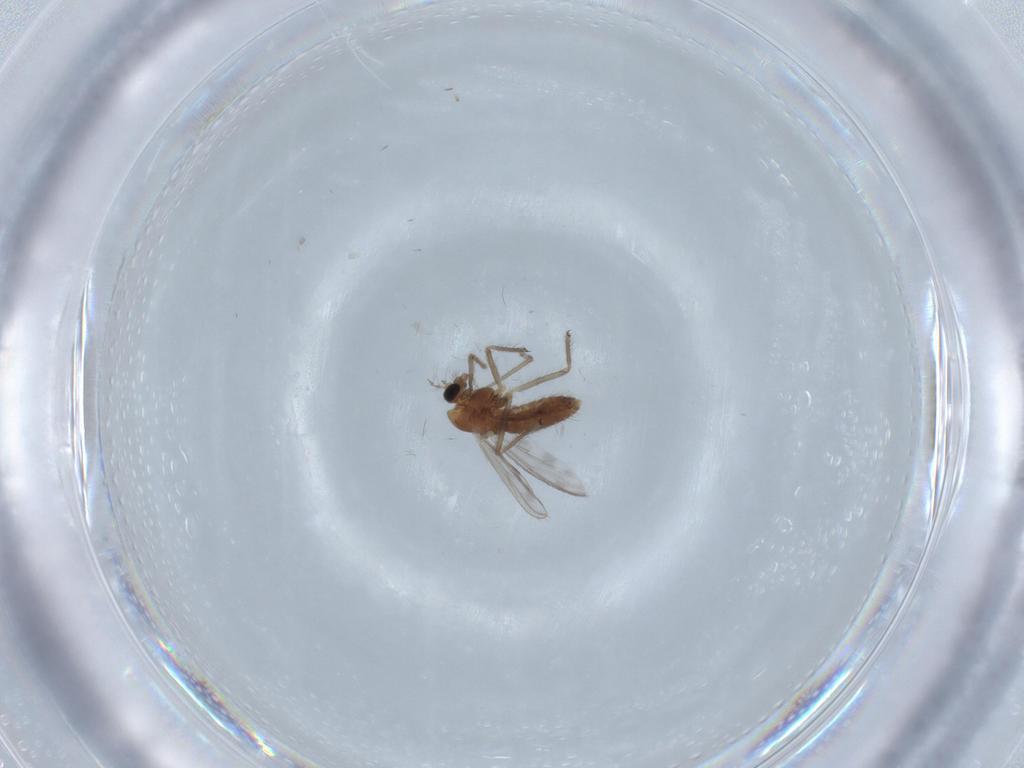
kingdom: Animalia
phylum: Arthropoda
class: Insecta
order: Diptera
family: Chironomidae
